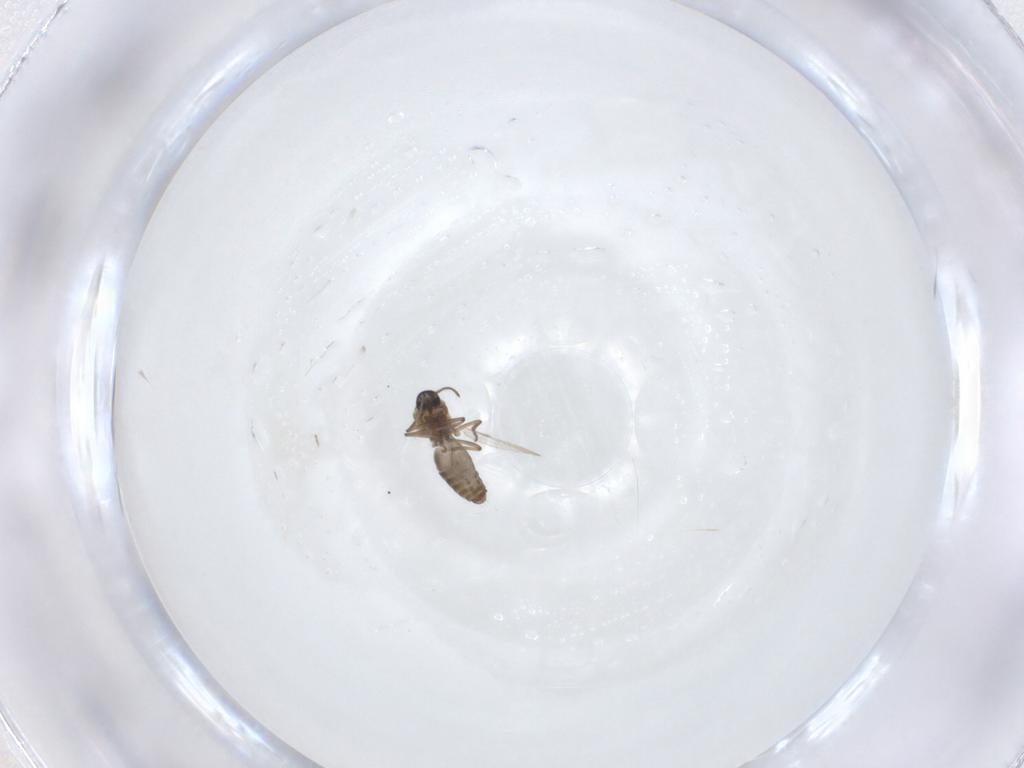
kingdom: Animalia
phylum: Arthropoda
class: Insecta
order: Diptera
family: Ceratopogonidae
